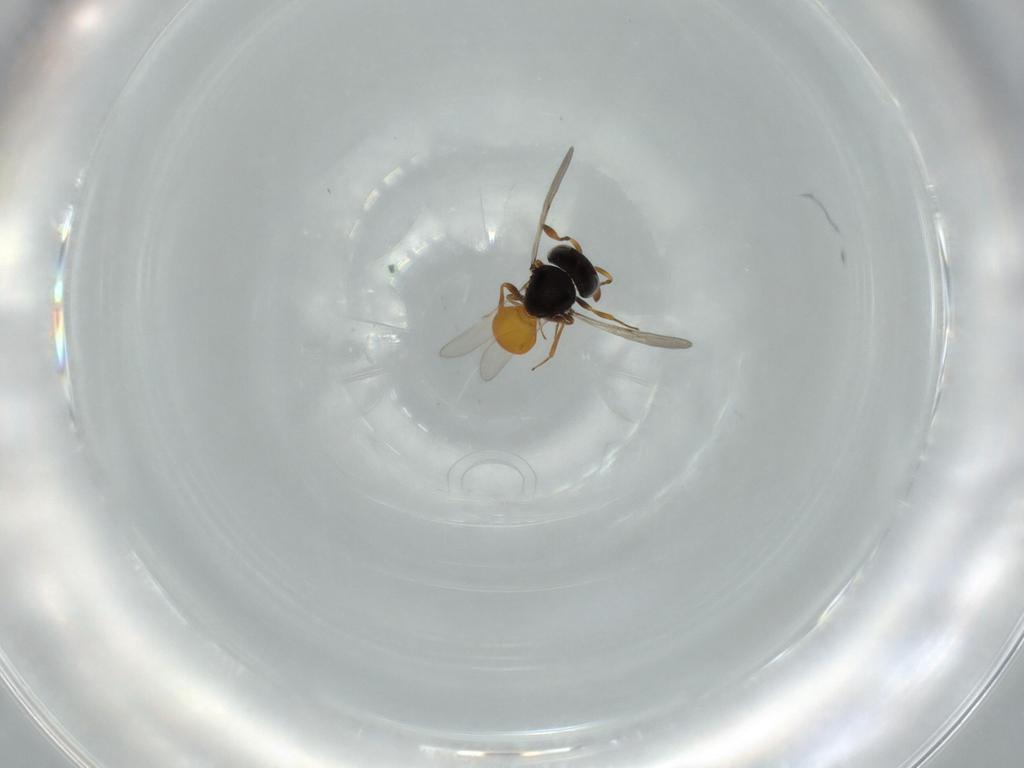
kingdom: Animalia
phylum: Arthropoda
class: Insecta
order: Hymenoptera
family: Scelionidae
